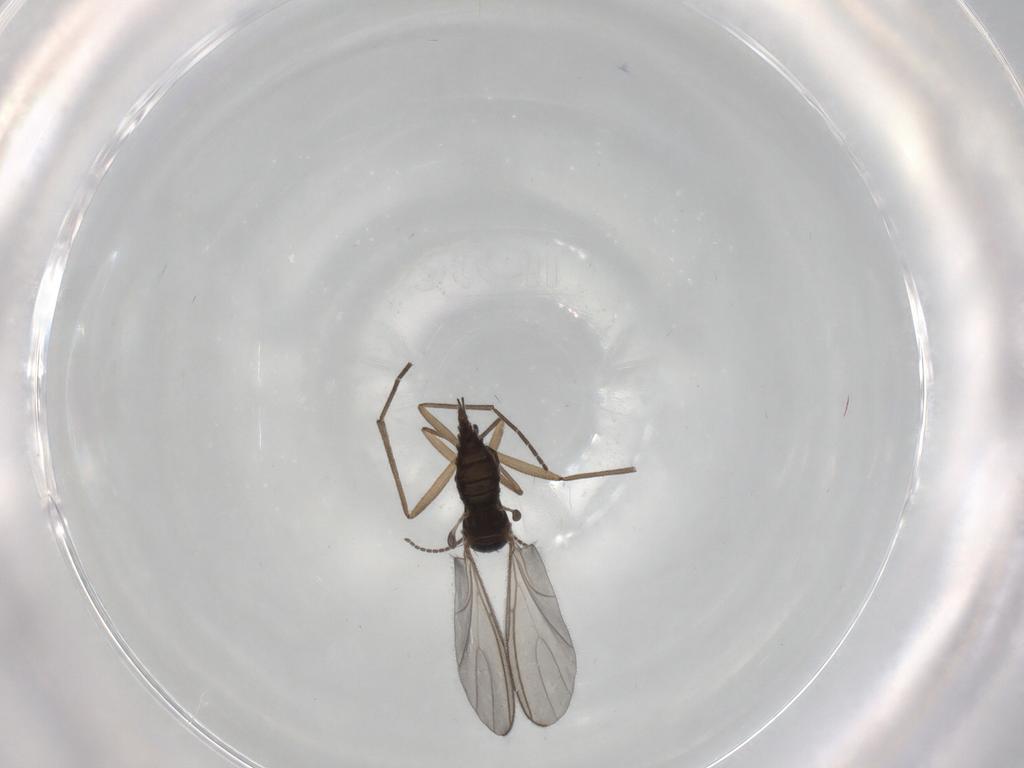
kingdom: Animalia
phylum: Arthropoda
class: Insecta
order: Diptera
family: Sciaridae
